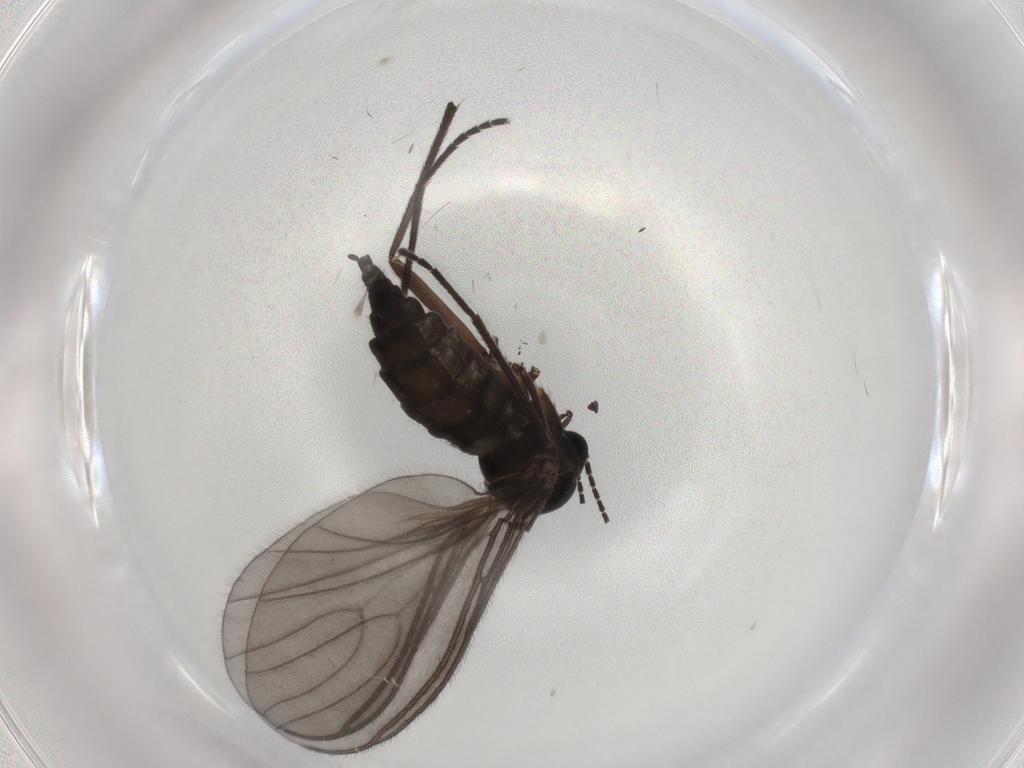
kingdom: Animalia
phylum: Arthropoda
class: Insecta
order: Diptera
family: Sciaridae
